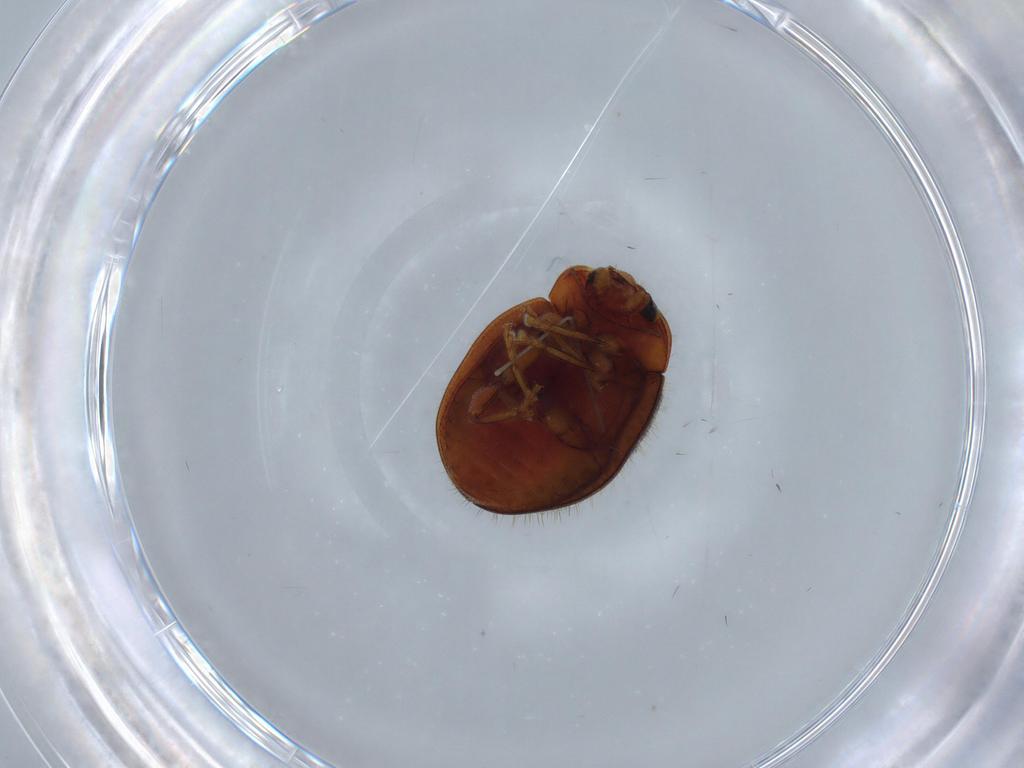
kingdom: Animalia
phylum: Arthropoda
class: Insecta
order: Coleoptera
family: Coccinellidae
